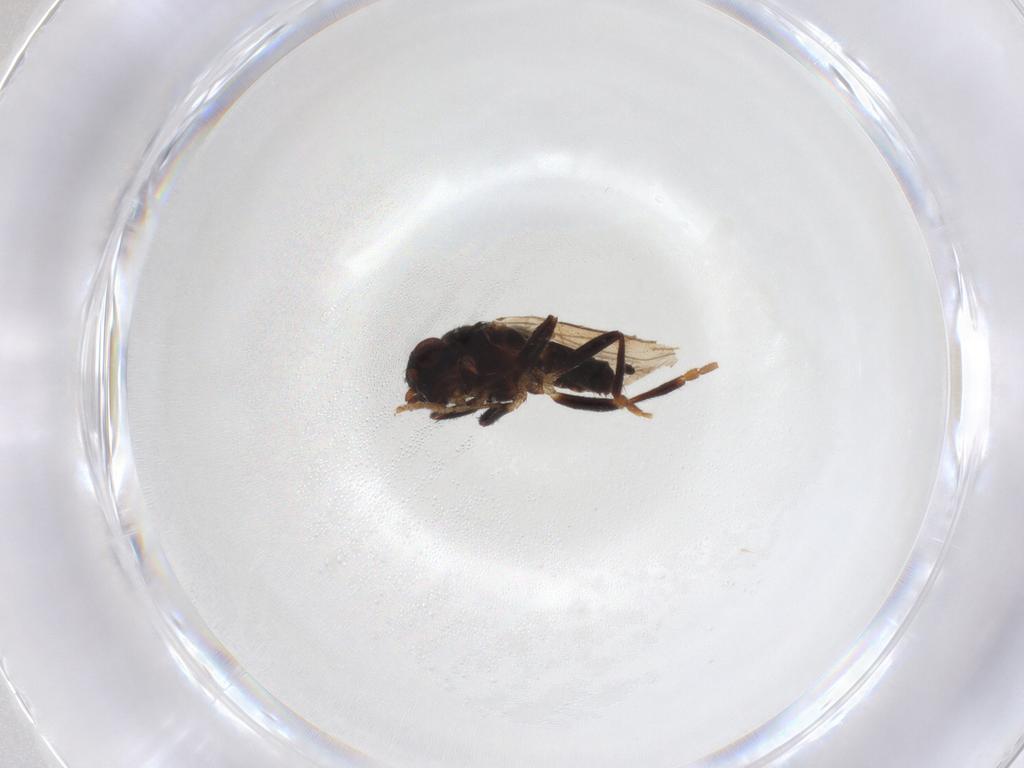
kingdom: Animalia
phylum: Arthropoda
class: Insecta
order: Diptera
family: Sphaeroceridae
